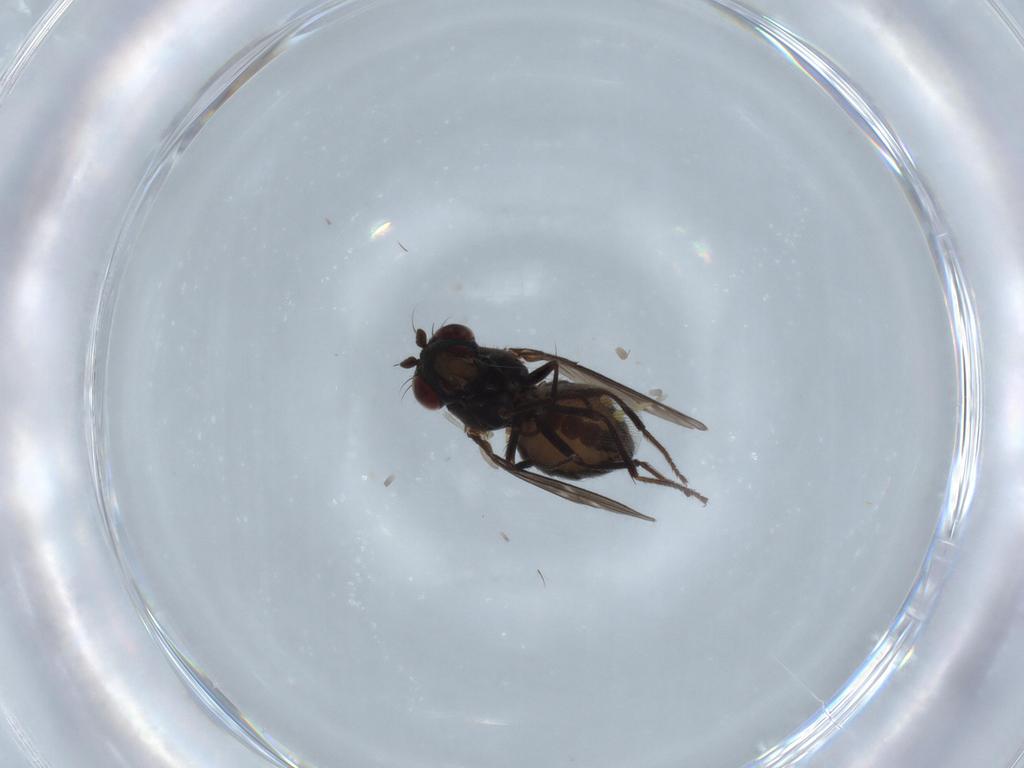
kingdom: Animalia
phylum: Arthropoda
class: Insecta
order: Diptera
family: Ephydridae
